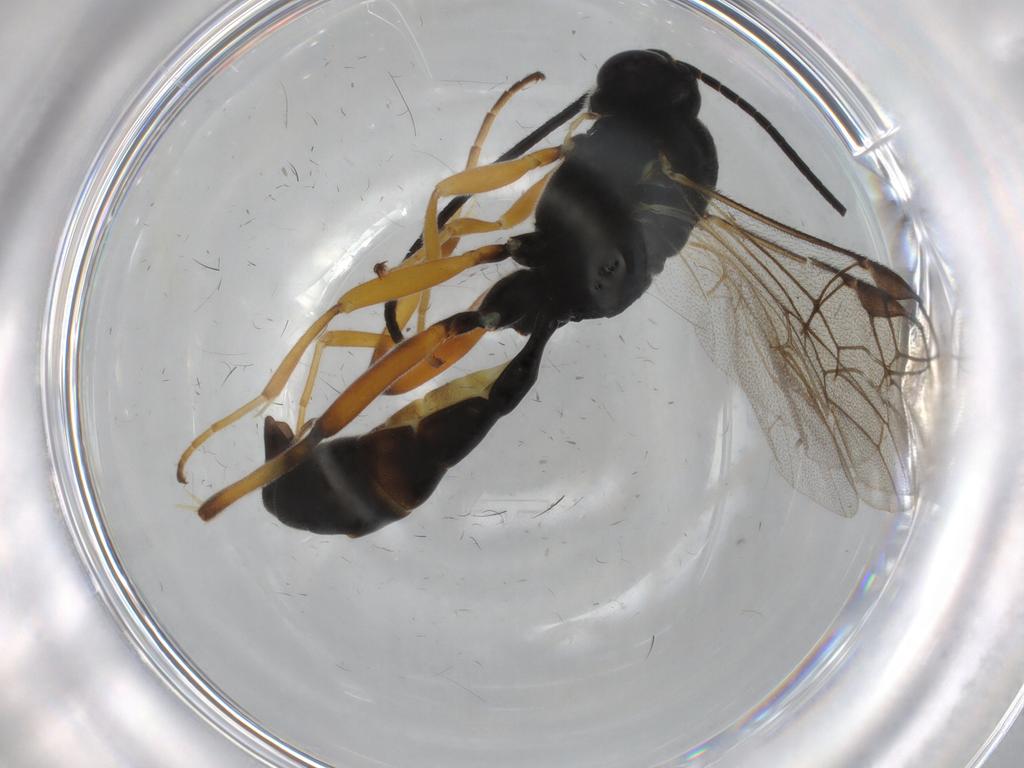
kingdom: Animalia
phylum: Arthropoda
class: Insecta
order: Hymenoptera
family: Ichneumonidae
